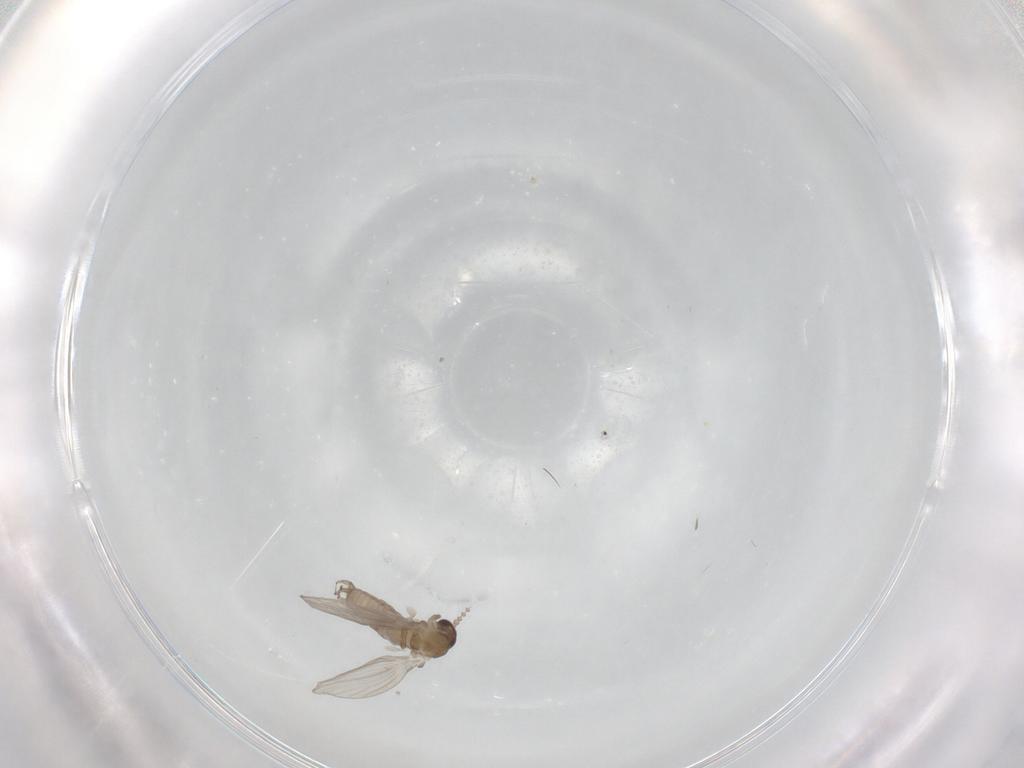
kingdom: Animalia
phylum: Arthropoda
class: Insecta
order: Diptera
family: Psychodidae
